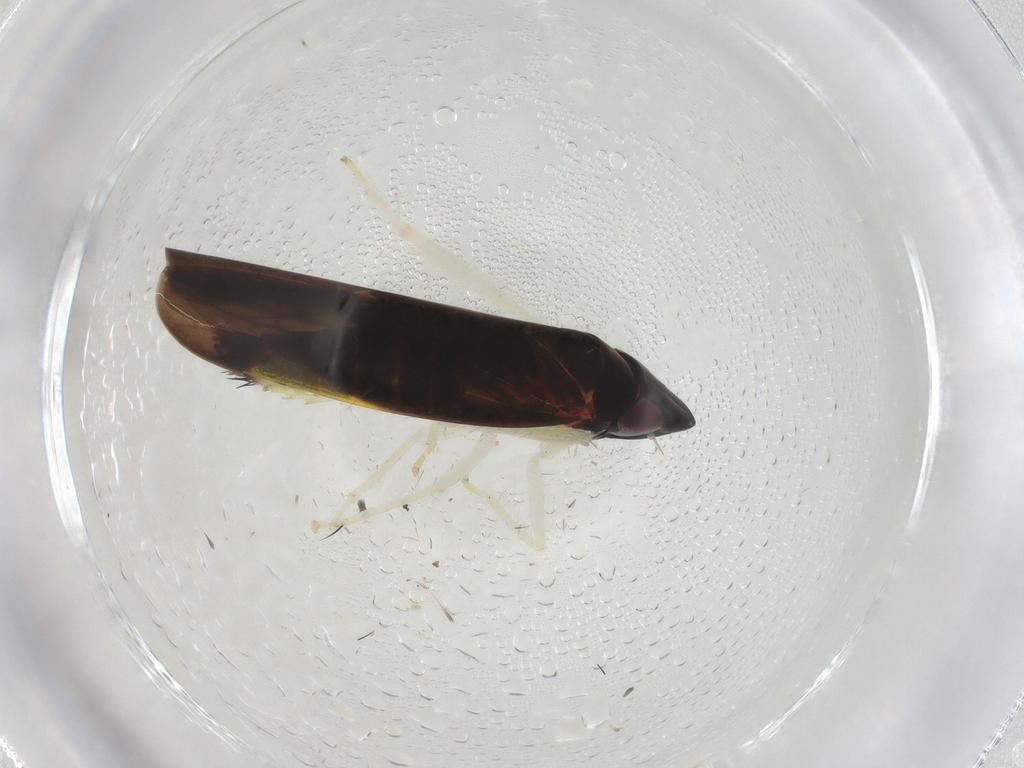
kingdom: Animalia
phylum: Arthropoda
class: Insecta
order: Hemiptera
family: Cicadellidae
